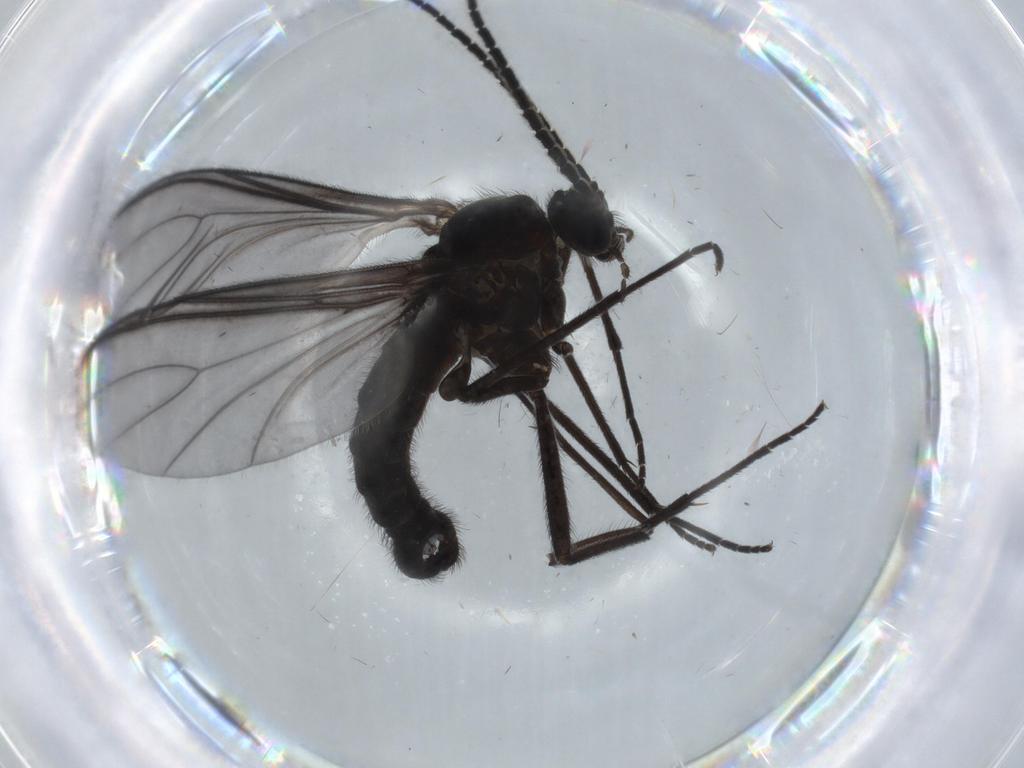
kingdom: Animalia
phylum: Arthropoda
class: Insecta
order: Diptera
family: Sciaridae
